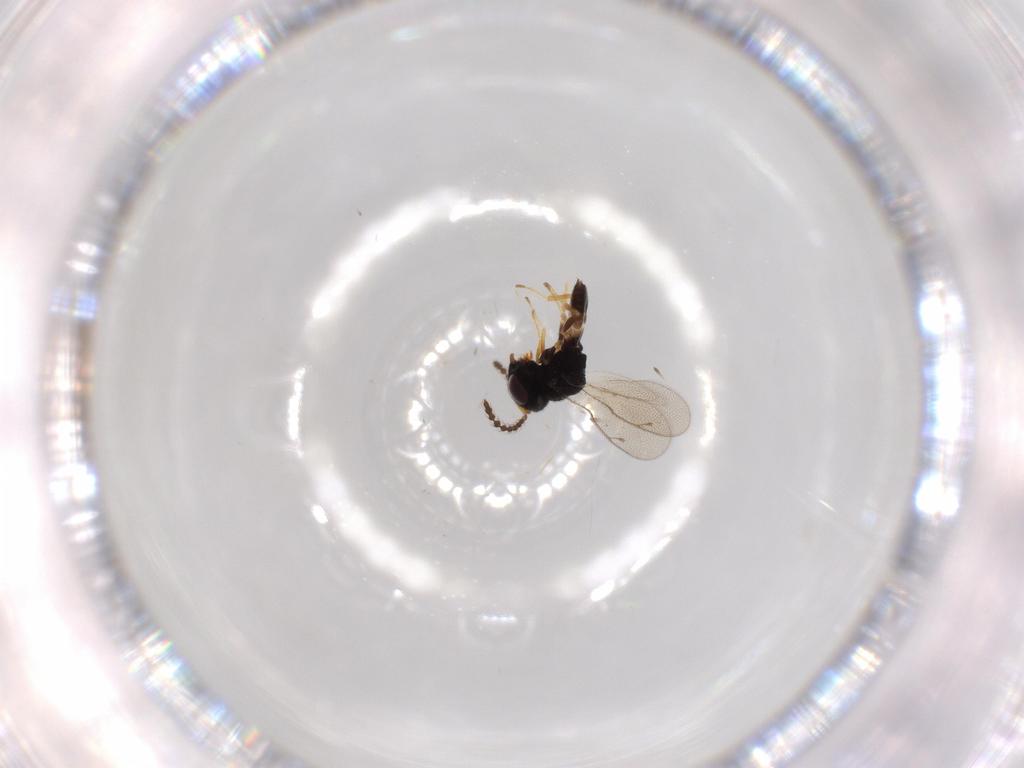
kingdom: Animalia
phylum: Arthropoda
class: Insecta
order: Hymenoptera
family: Pteromalidae
